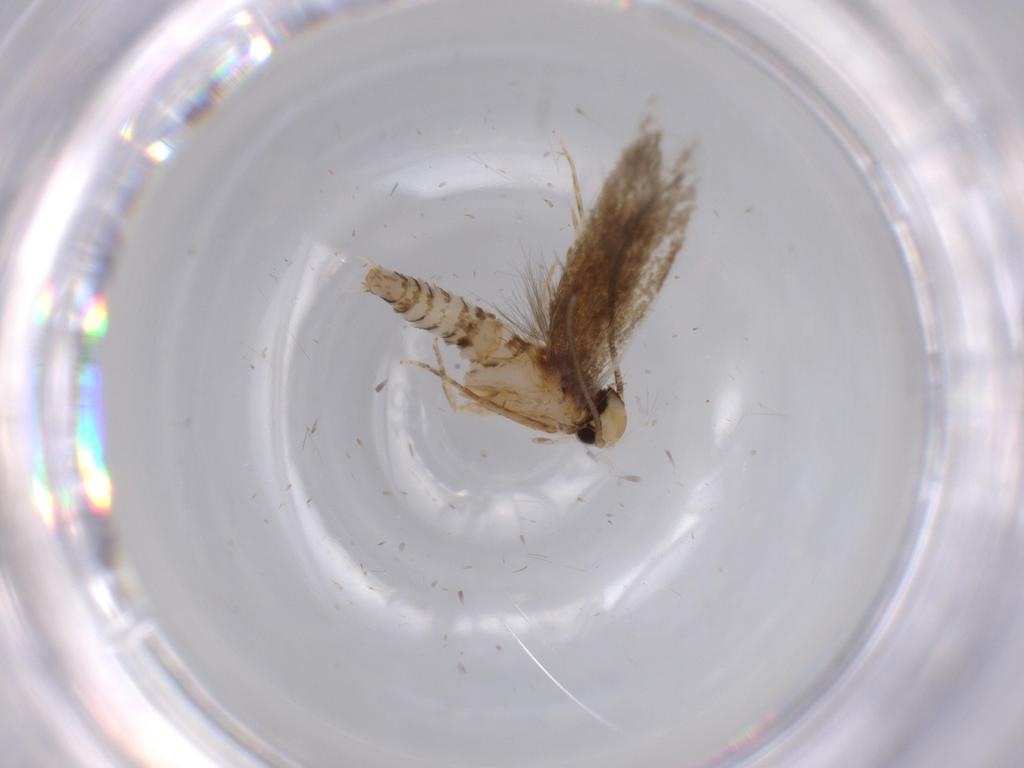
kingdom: Animalia
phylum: Arthropoda
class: Insecta
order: Lepidoptera
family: Tineidae
